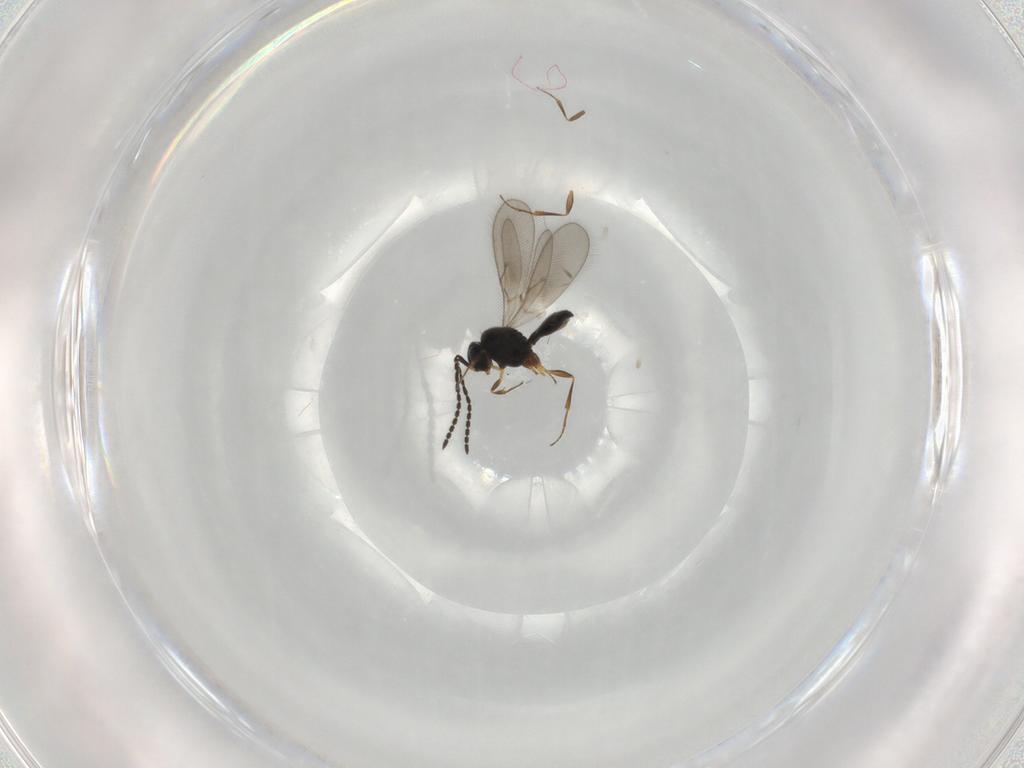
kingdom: Animalia
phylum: Arthropoda
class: Insecta
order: Hymenoptera
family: Scelionidae
